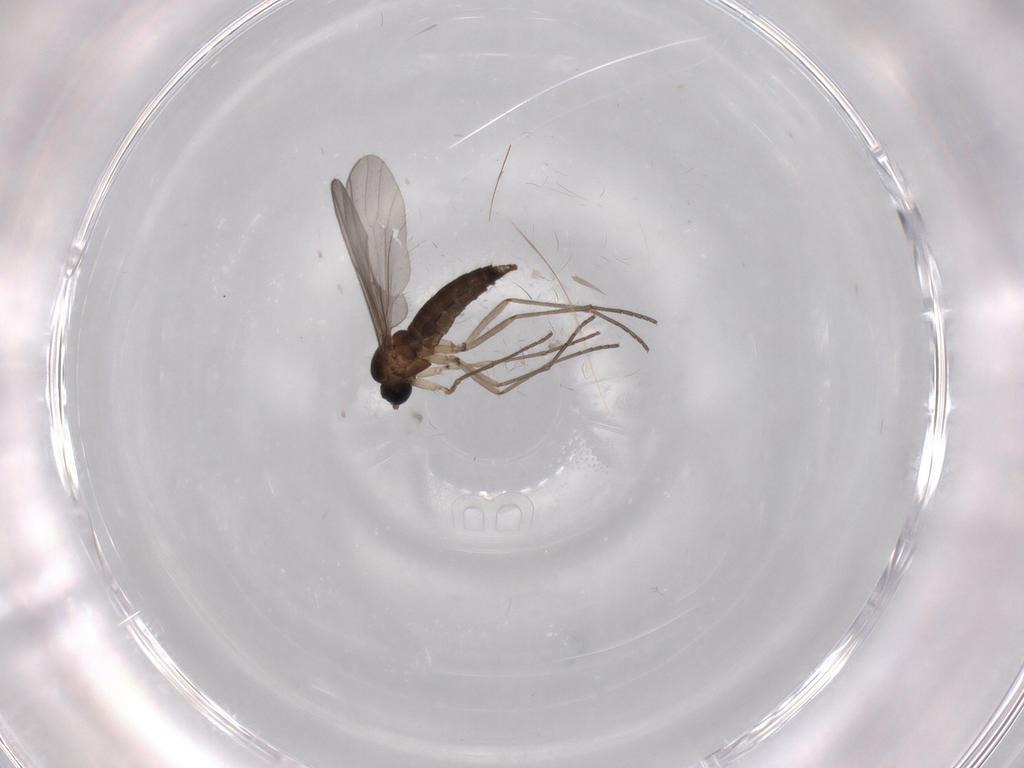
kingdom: Animalia
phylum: Arthropoda
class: Insecta
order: Diptera
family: Sciaridae
